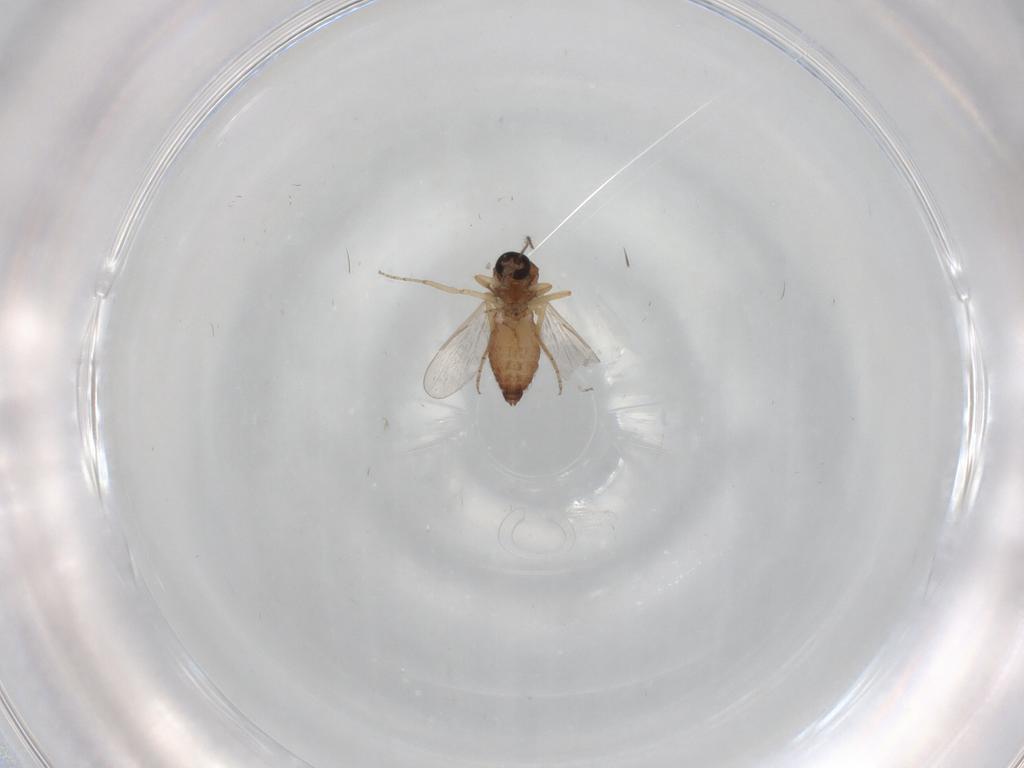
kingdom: Animalia
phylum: Arthropoda
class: Insecta
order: Diptera
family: Ceratopogonidae
